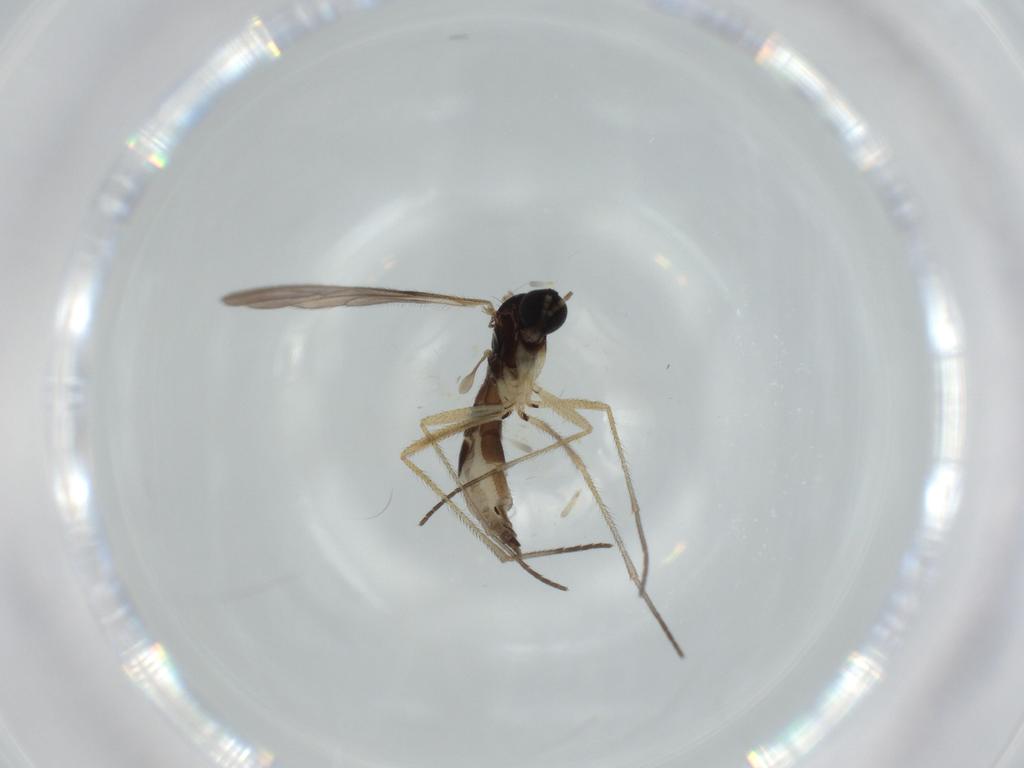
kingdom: Animalia
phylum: Arthropoda
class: Insecta
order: Diptera
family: Sciaridae
